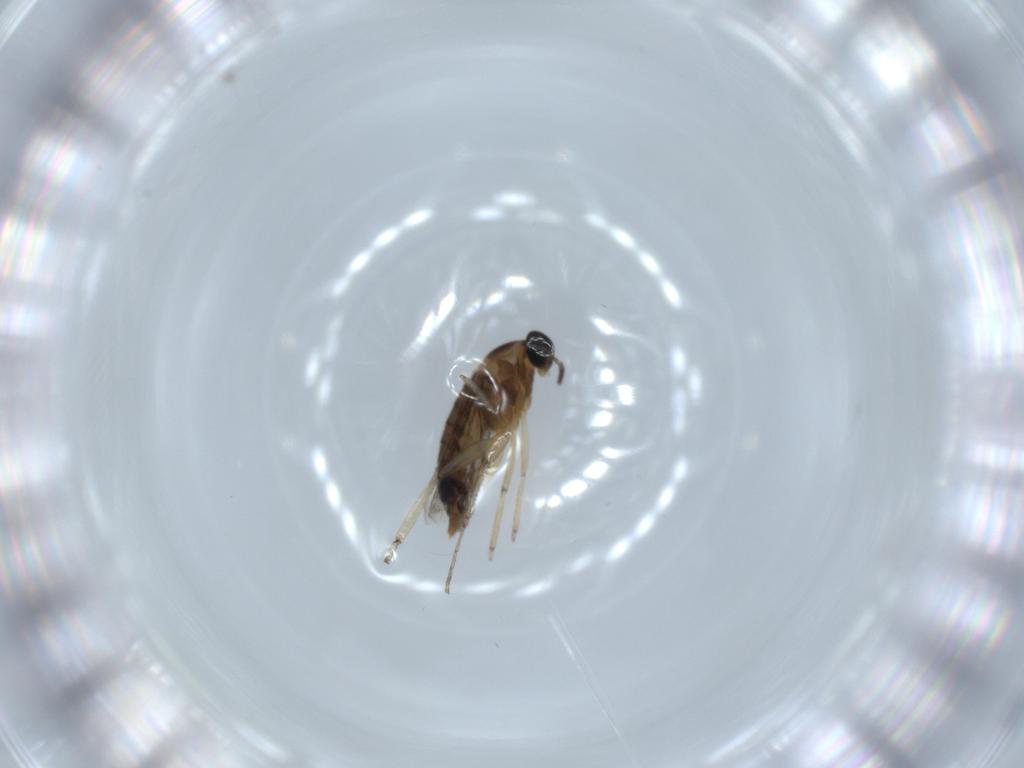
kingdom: Animalia
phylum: Arthropoda
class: Insecta
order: Diptera
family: Cecidomyiidae
